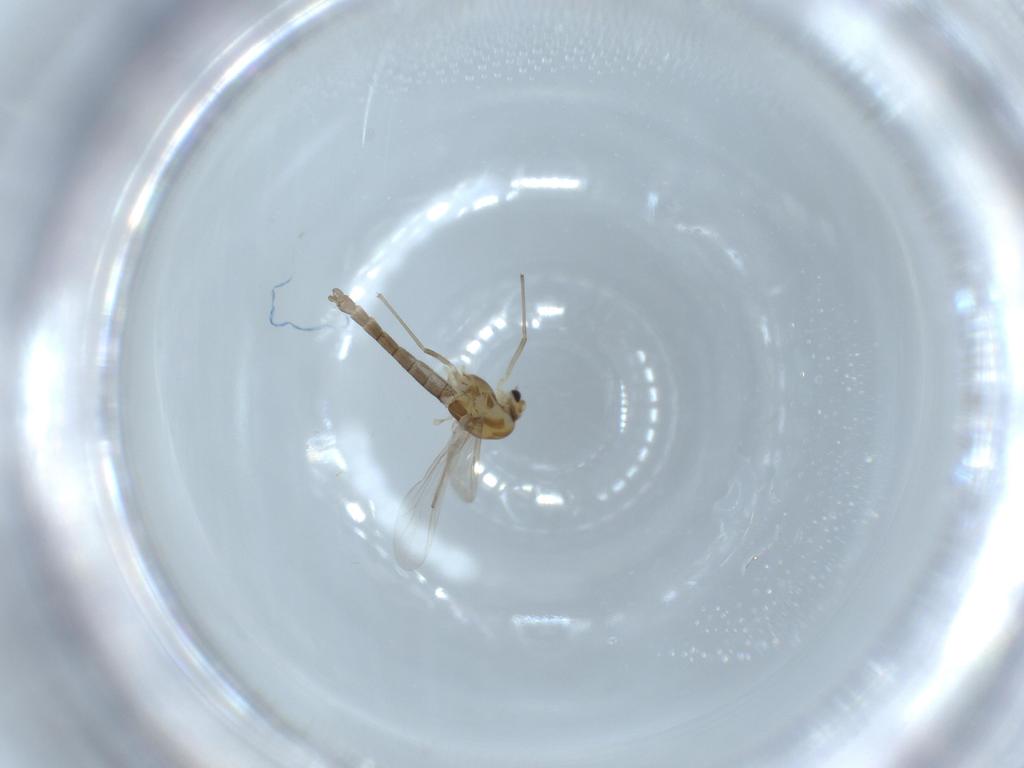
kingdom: Animalia
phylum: Arthropoda
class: Insecta
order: Diptera
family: Chironomidae
